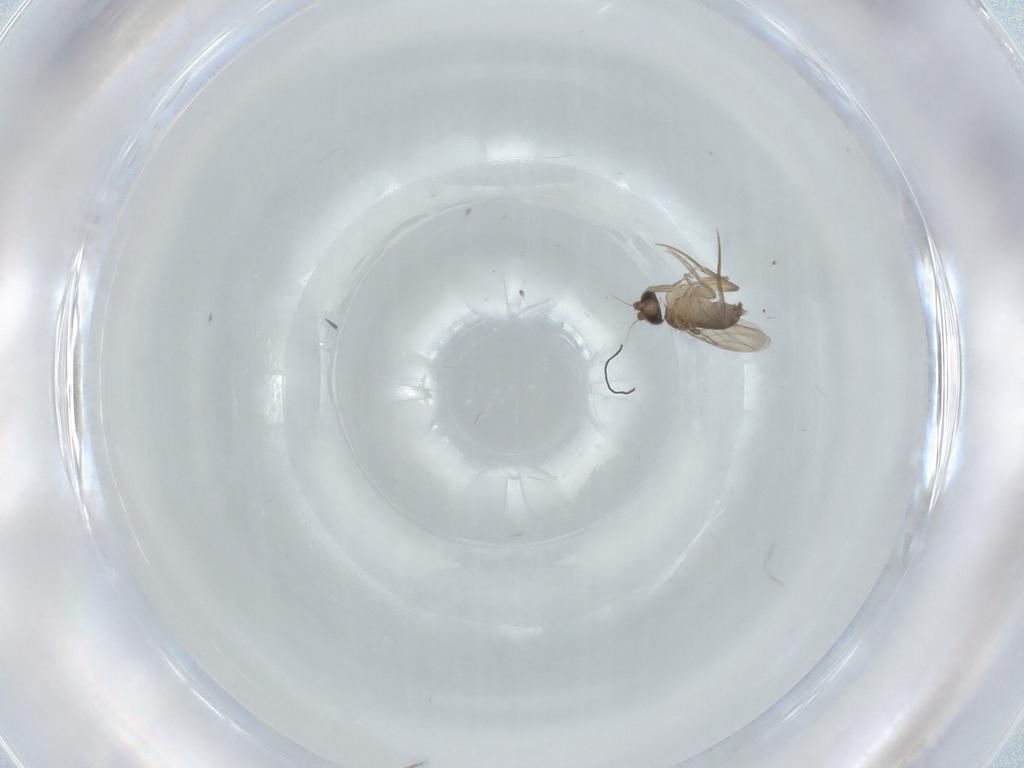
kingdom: Animalia
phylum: Arthropoda
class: Insecta
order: Diptera
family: Phoridae
